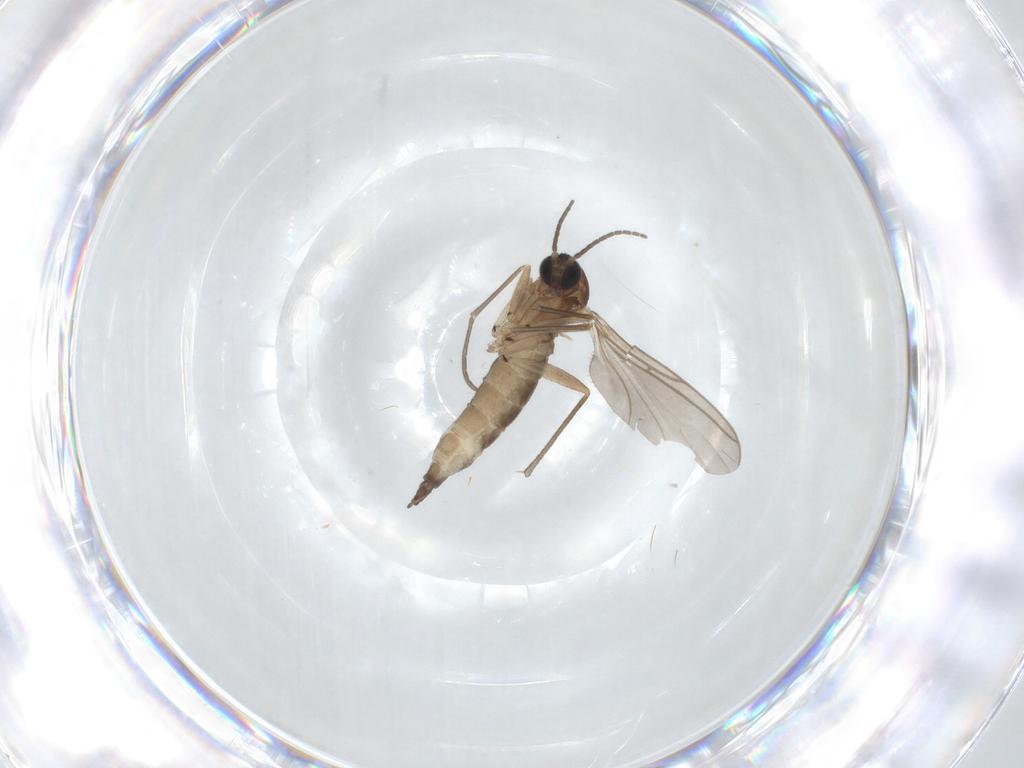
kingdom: Animalia
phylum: Arthropoda
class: Insecta
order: Diptera
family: Sciaridae
